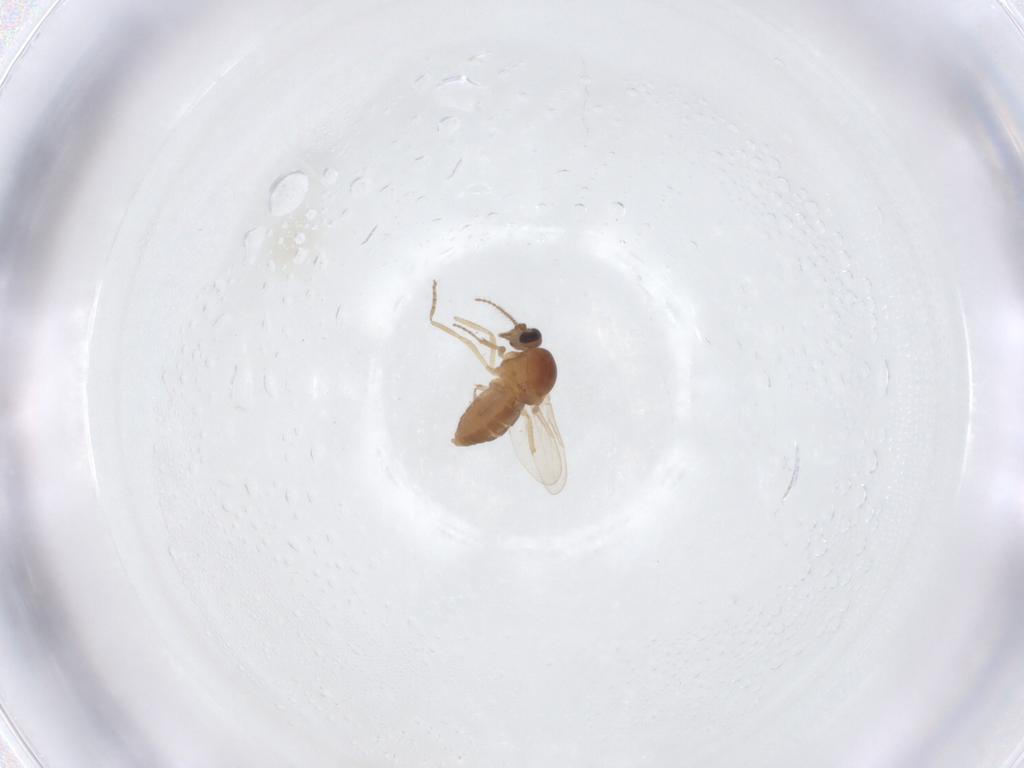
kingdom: Animalia
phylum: Arthropoda
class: Insecta
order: Diptera
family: Ceratopogonidae
